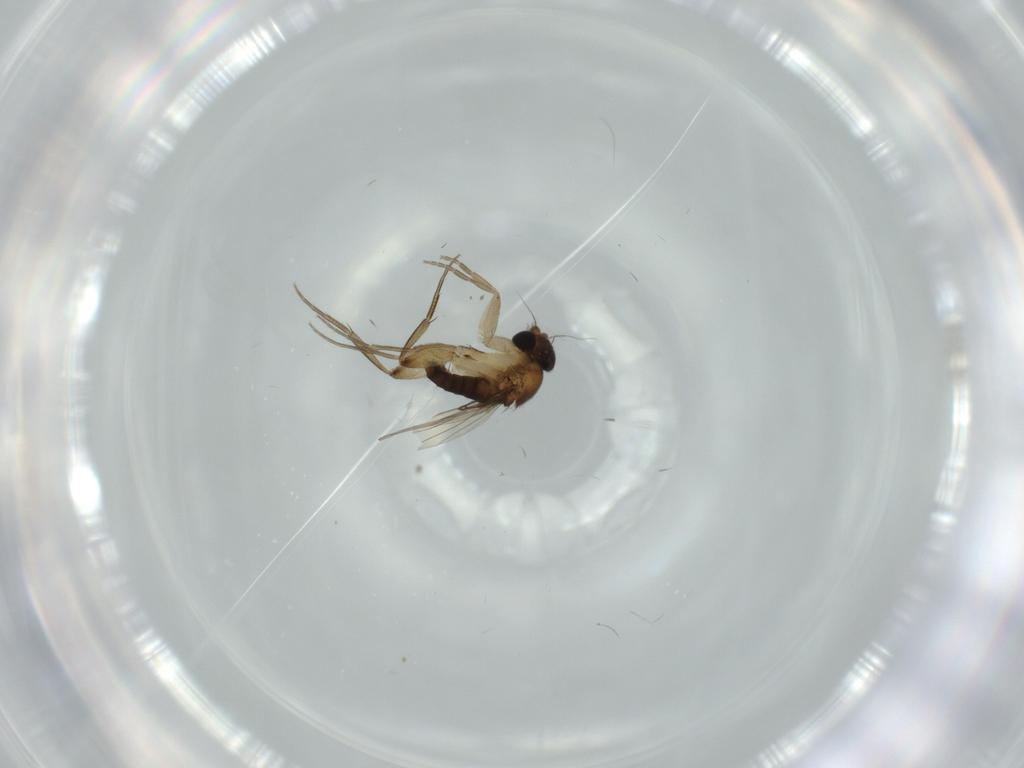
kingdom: Animalia
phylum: Arthropoda
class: Insecta
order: Diptera
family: Phoridae
